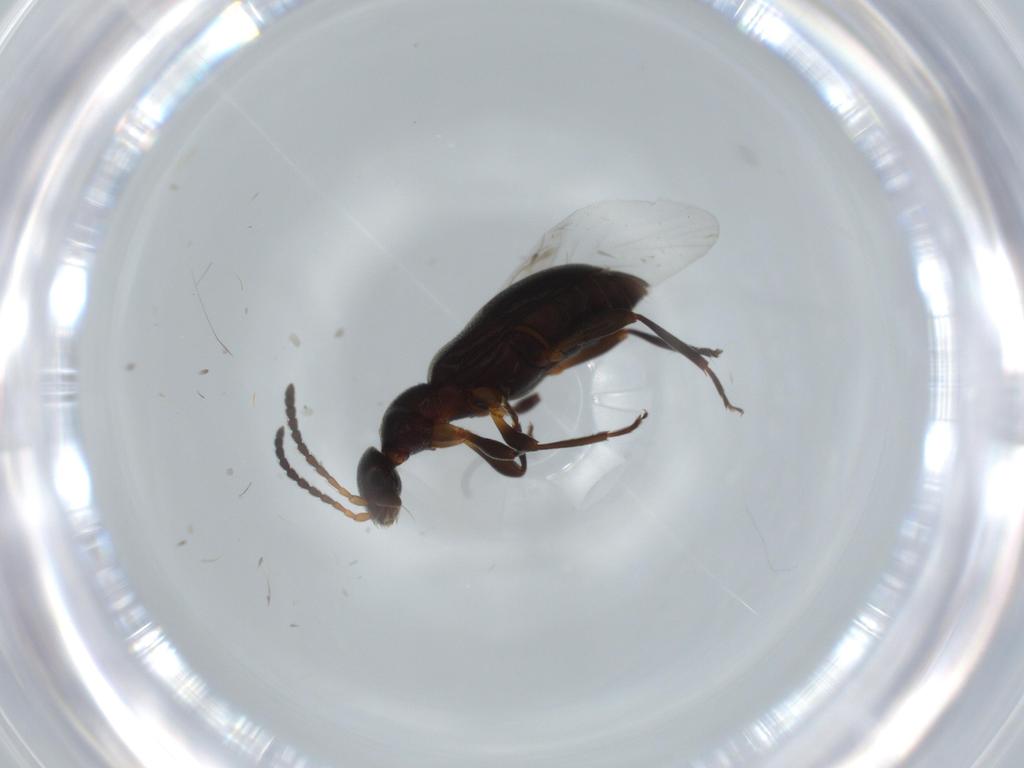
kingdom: Animalia
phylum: Arthropoda
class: Insecta
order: Coleoptera
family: Anthicidae
